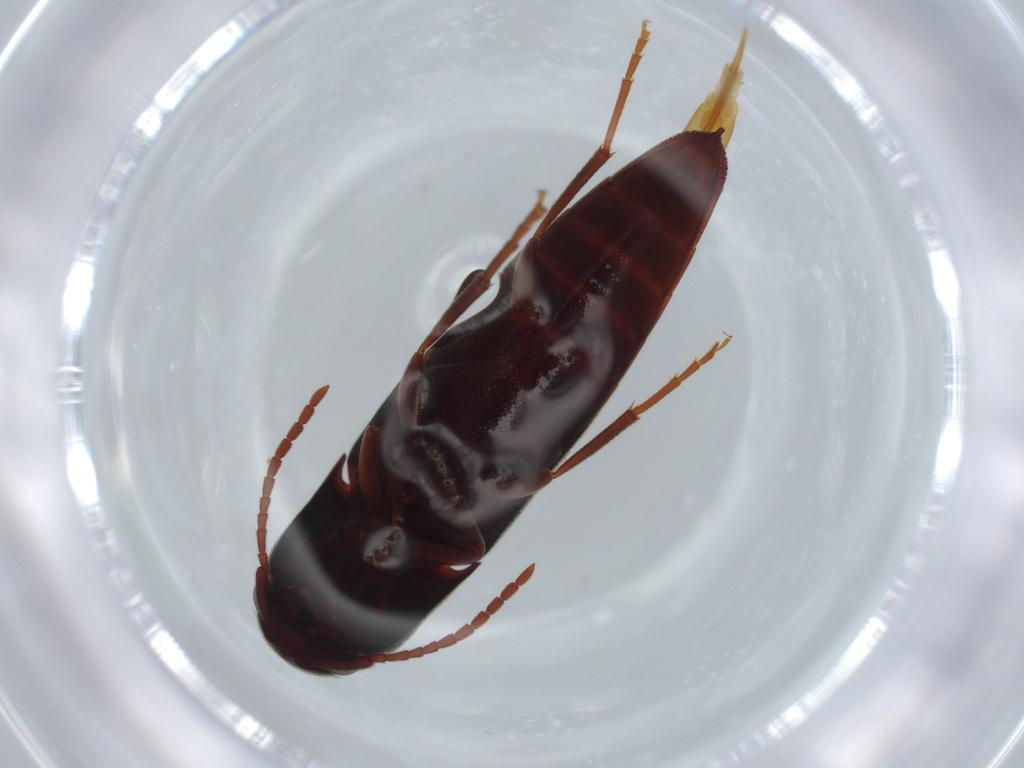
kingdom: Animalia
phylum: Arthropoda
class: Insecta
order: Coleoptera
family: Eucnemidae
